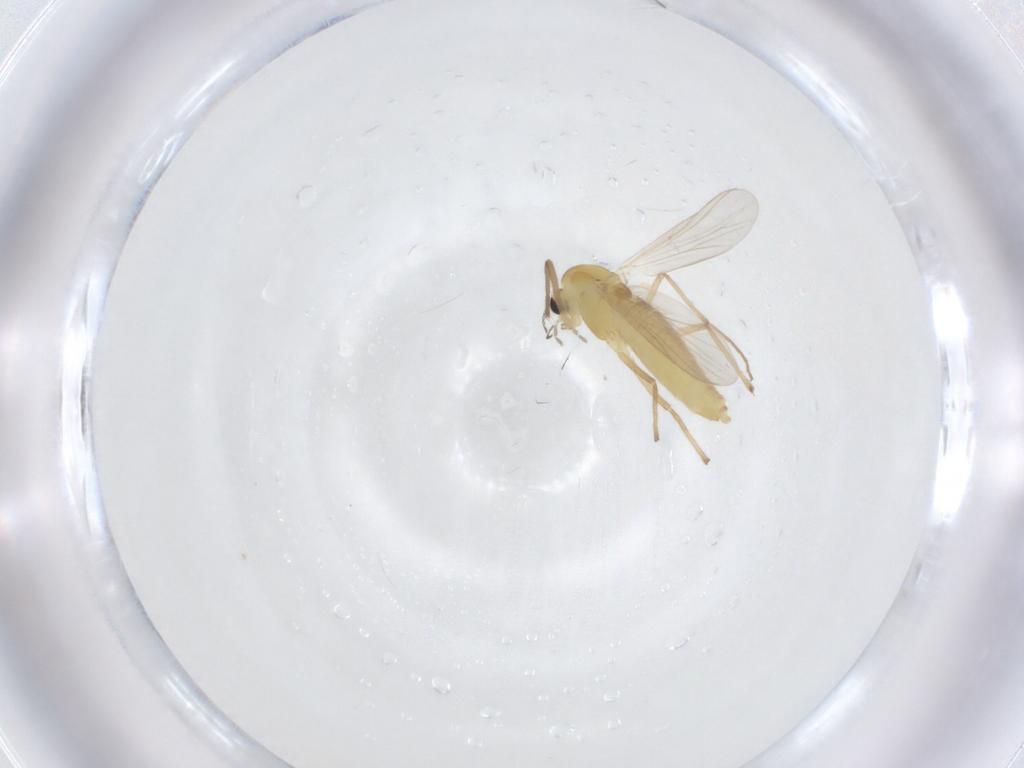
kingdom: Animalia
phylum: Arthropoda
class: Insecta
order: Diptera
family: Chironomidae
